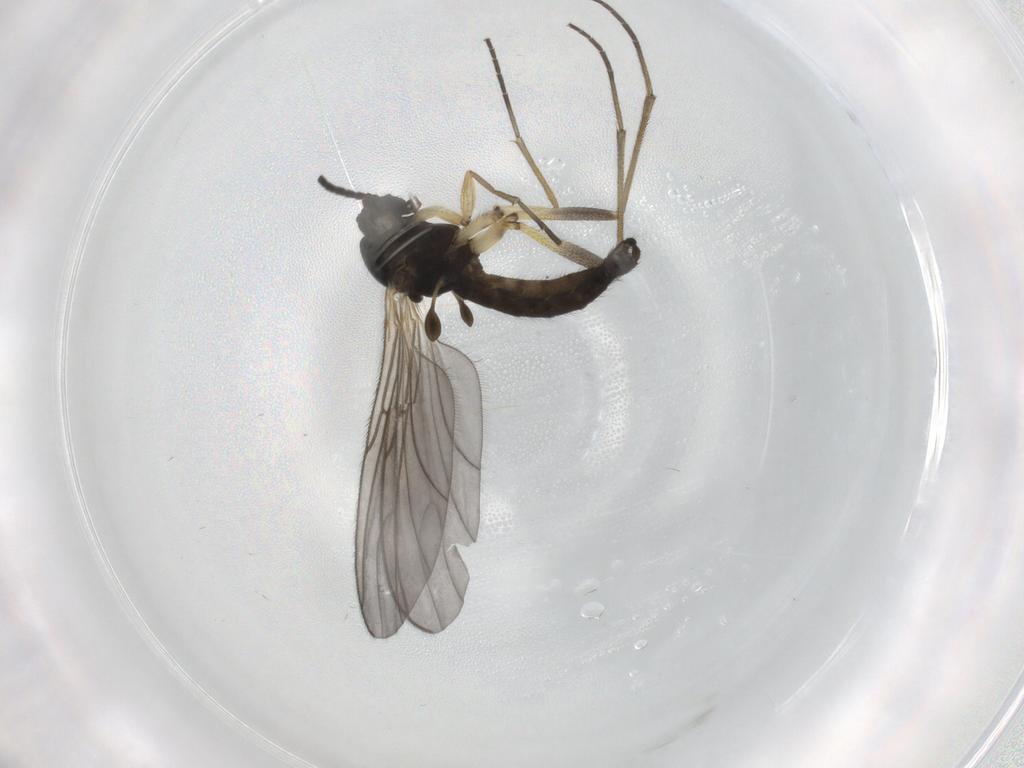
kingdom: Animalia
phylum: Arthropoda
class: Insecta
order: Diptera
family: Sciaridae
